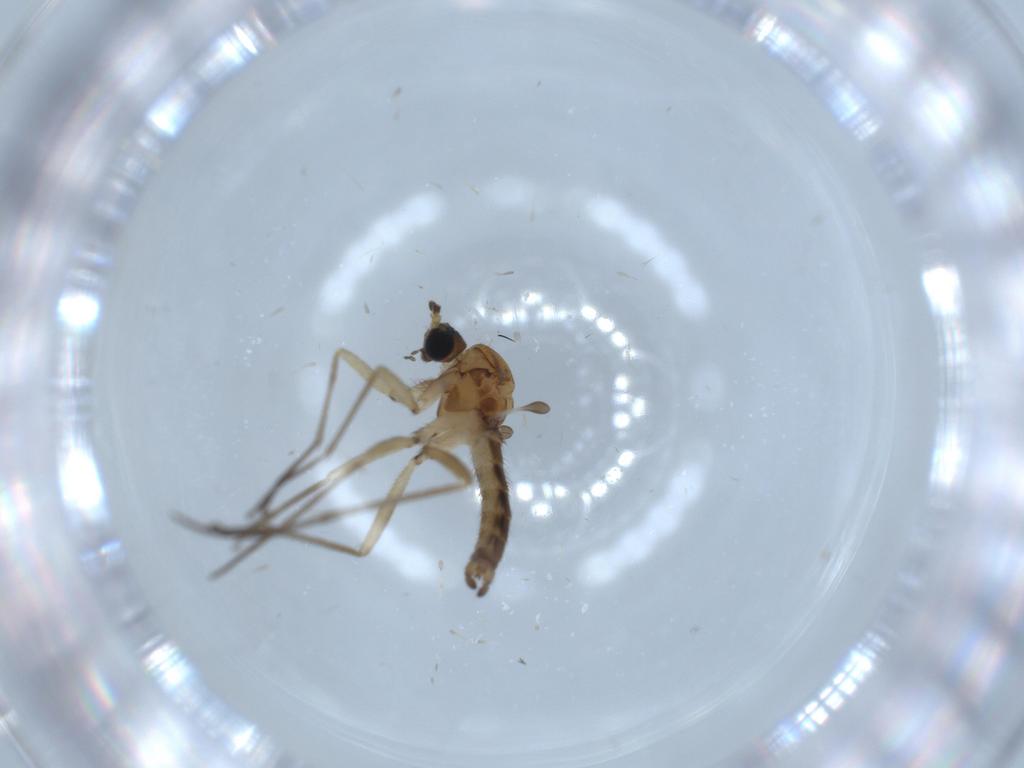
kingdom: Animalia
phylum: Arthropoda
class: Insecta
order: Diptera
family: Sciaridae
